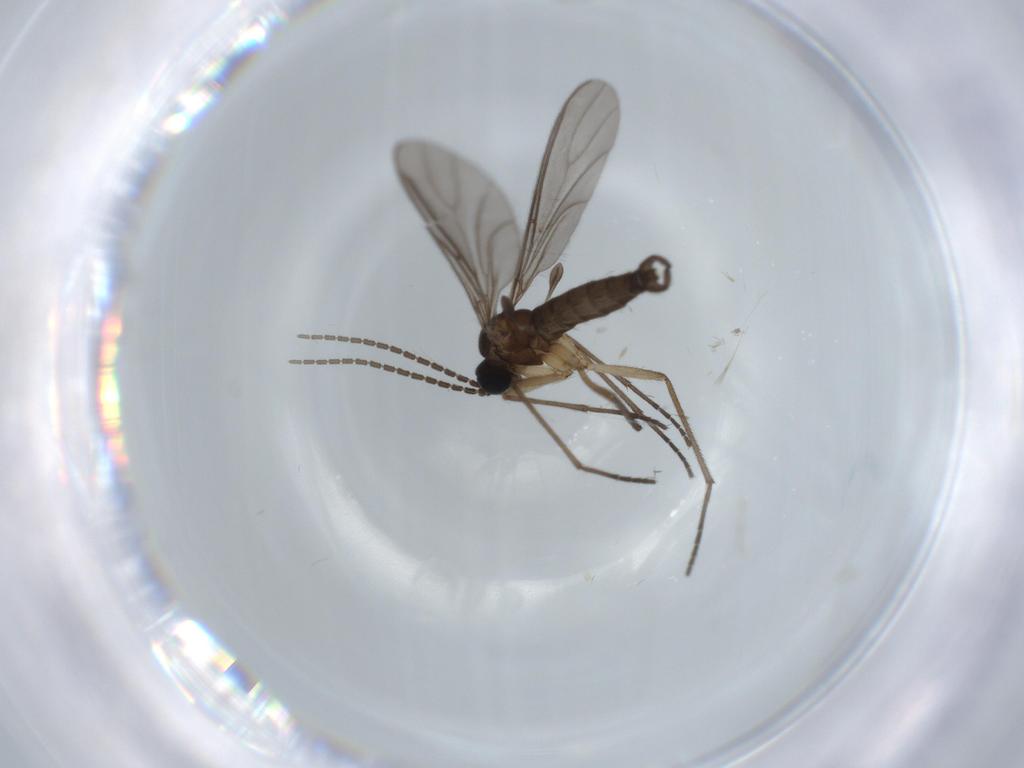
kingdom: Animalia
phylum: Arthropoda
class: Insecta
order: Diptera
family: Sciaridae
